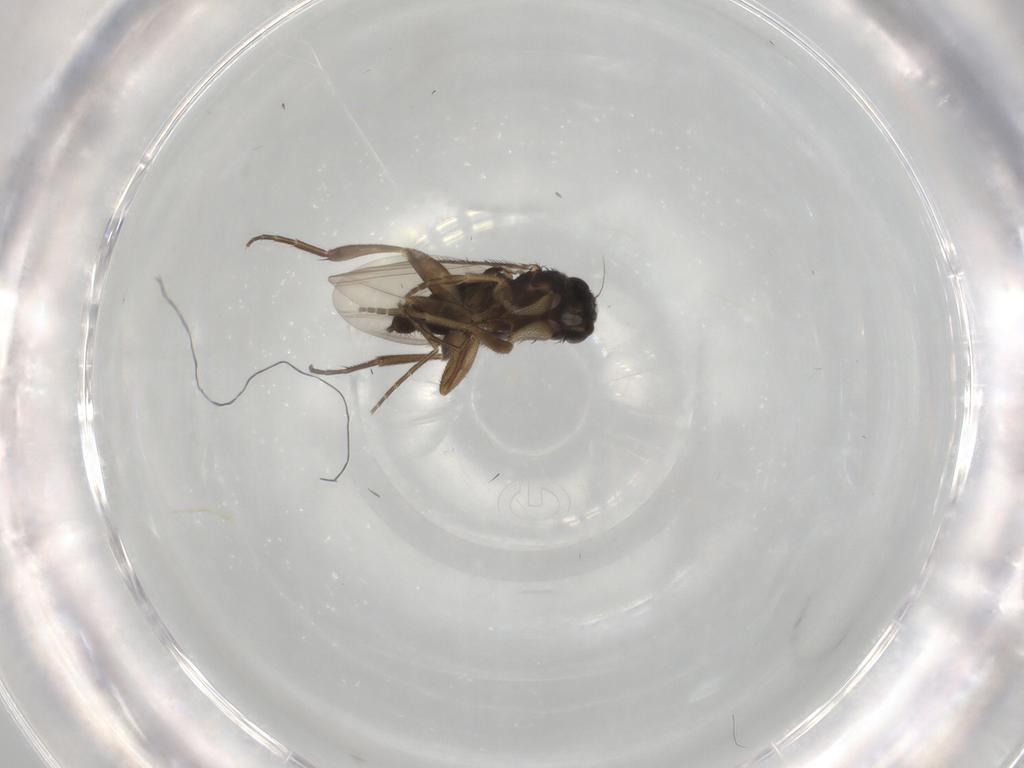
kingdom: Animalia
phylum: Arthropoda
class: Insecta
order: Diptera
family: Phoridae
